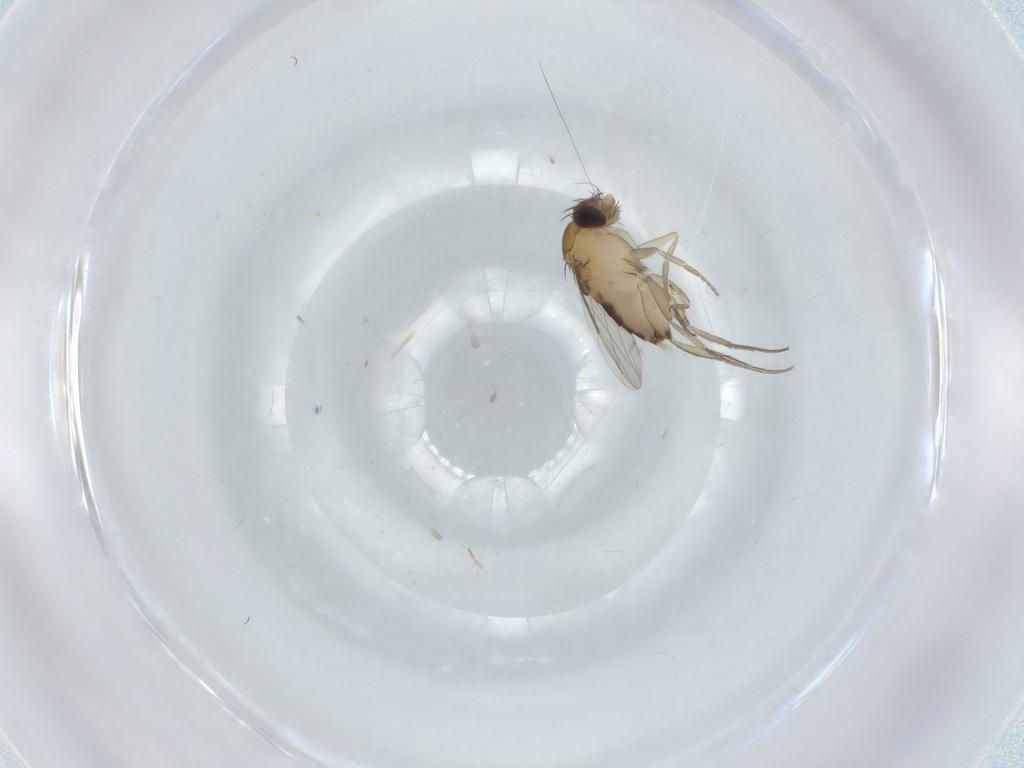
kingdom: Animalia
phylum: Arthropoda
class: Insecta
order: Diptera
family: Phoridae
